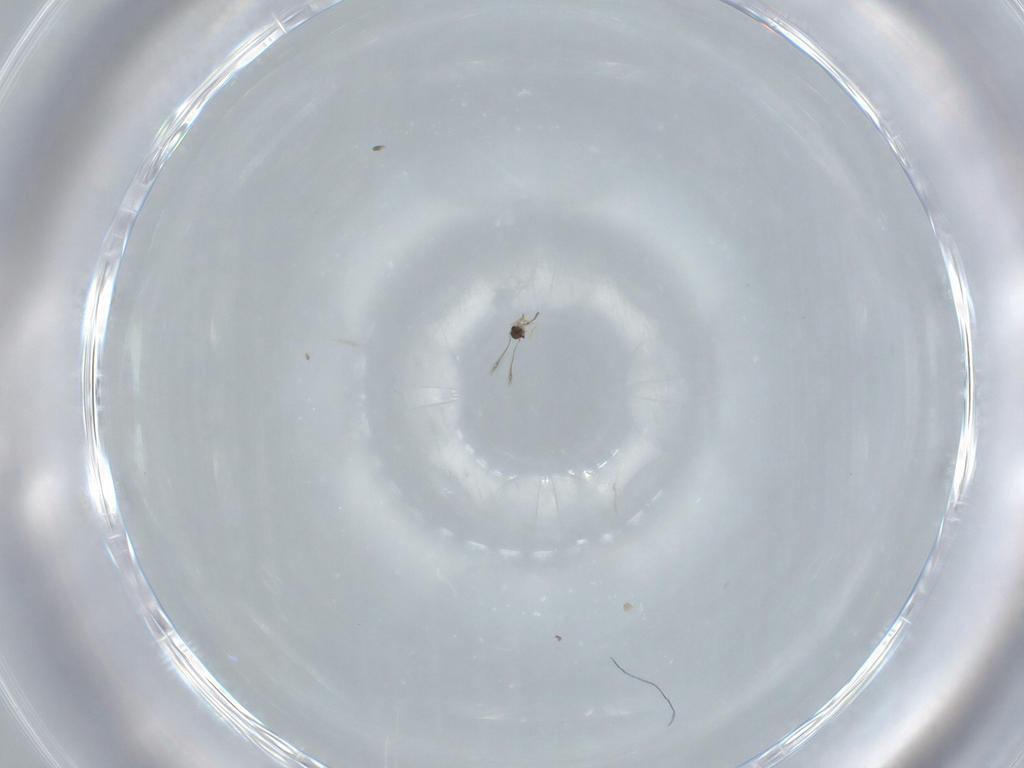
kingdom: Animalia
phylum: Arthropoda
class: Insecta
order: Diptera
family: Cecidomyiidae
